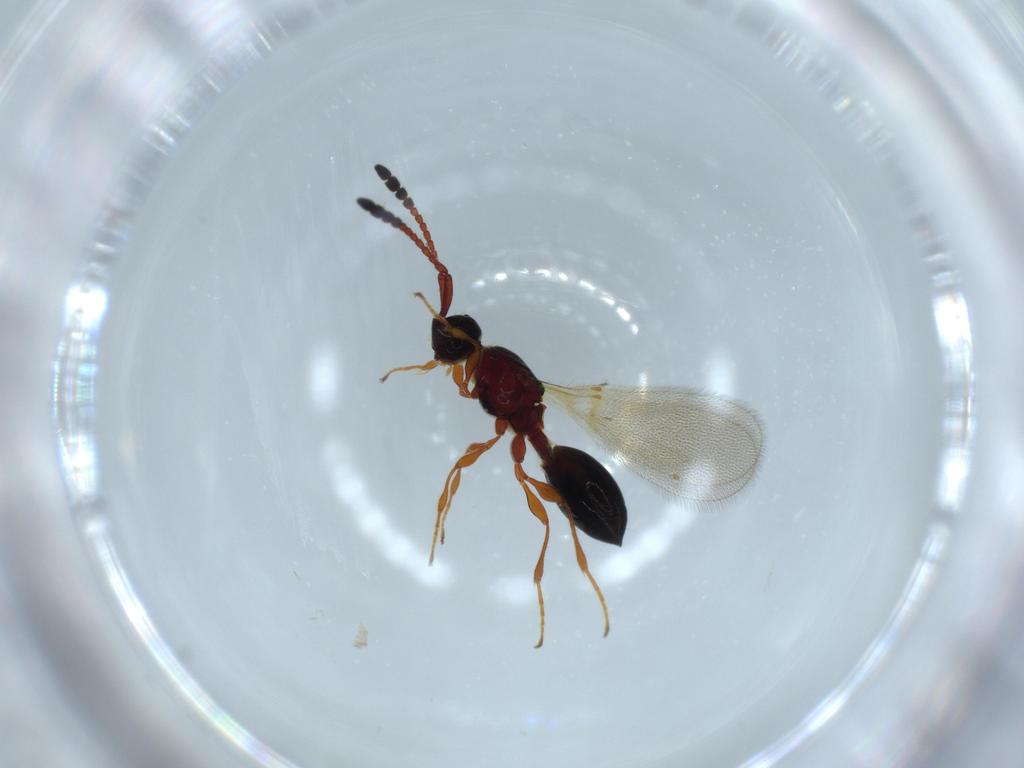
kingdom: Animalia
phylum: Arthropoda
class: Insecta
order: Hymenoptera
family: Diapriidae
